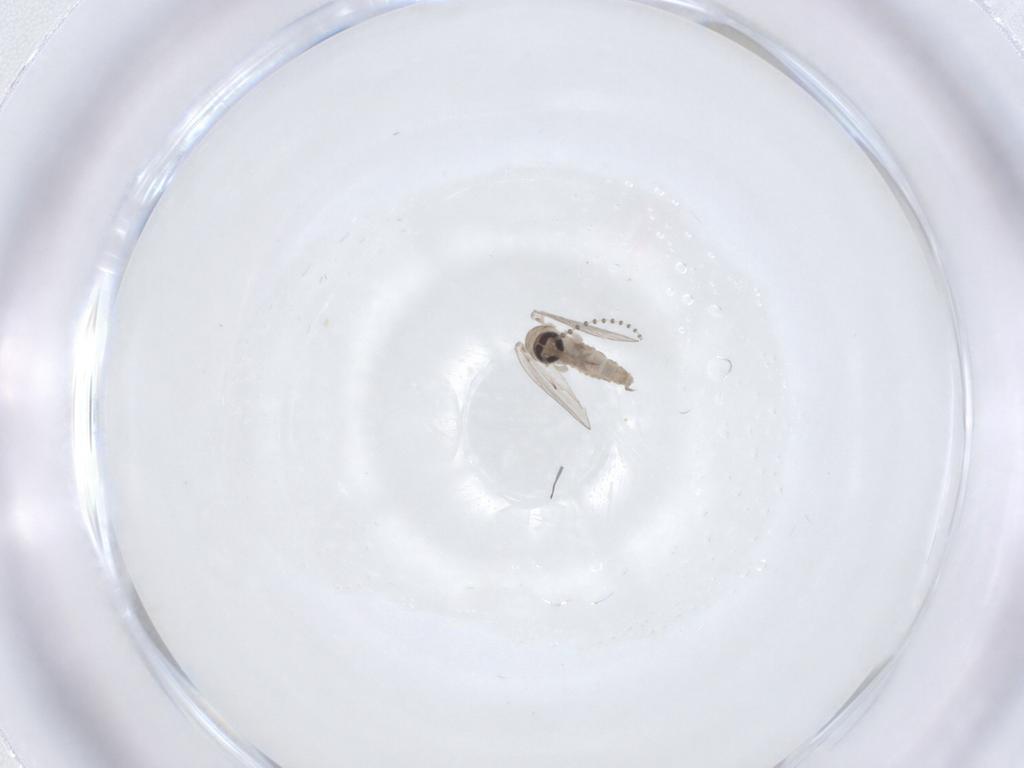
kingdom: Animalia
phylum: Arthropoda
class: Insecta
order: Diptera
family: Psychodidae
